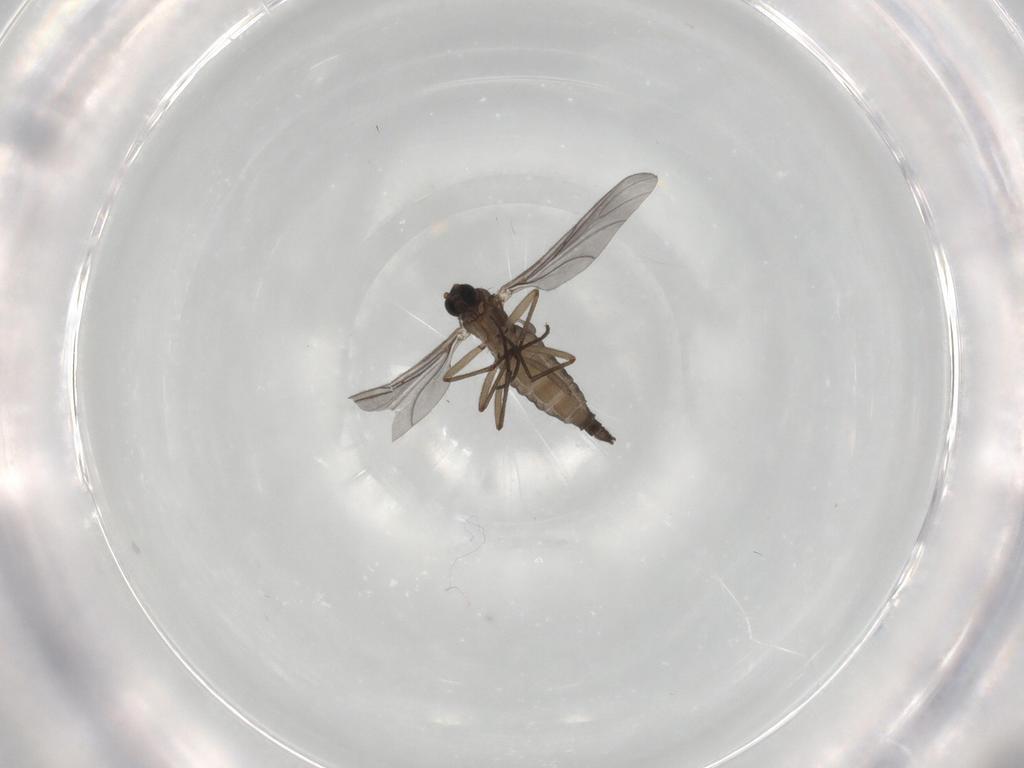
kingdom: Animalia
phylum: Arthropoda
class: Insecta
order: Diptera
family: Sciaridae
